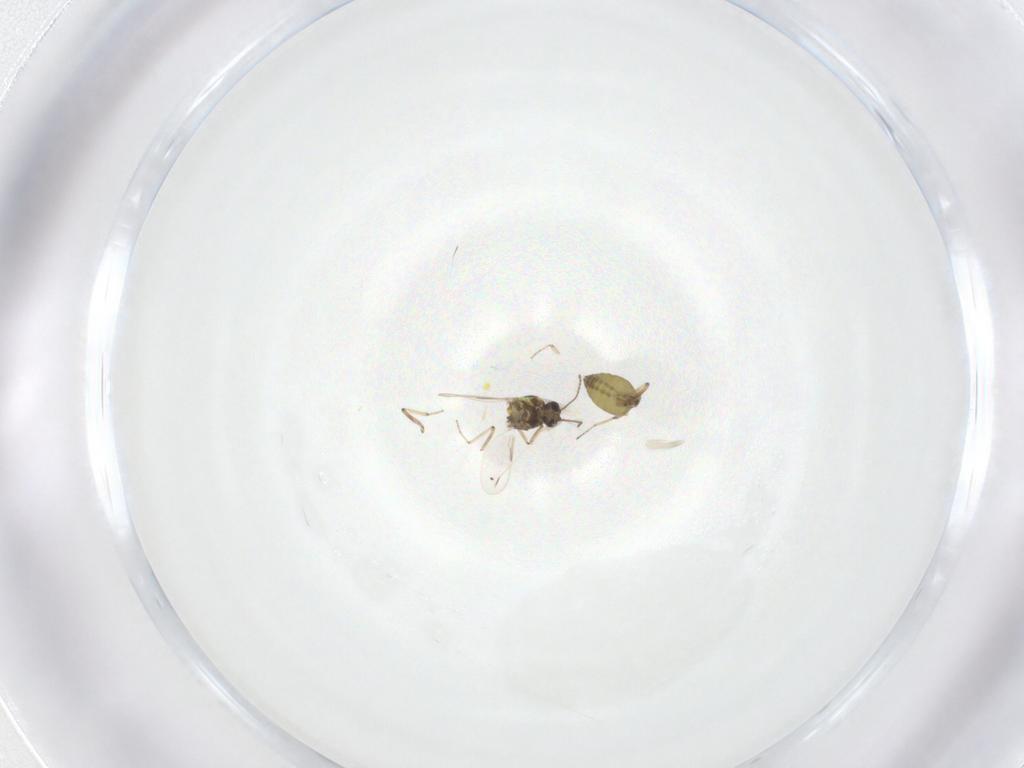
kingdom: Animalia
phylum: Arthropoda
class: Insecta
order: Diptera
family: Ceratopogonidae
